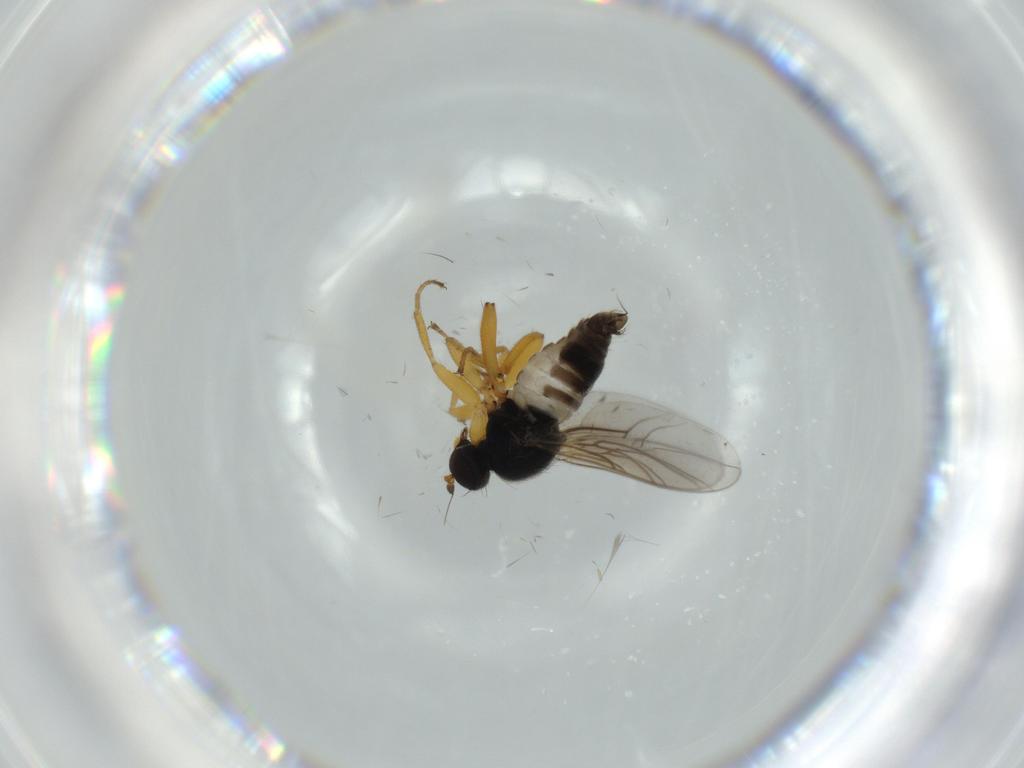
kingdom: Animalia
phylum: Arthropoda
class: Insecta
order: Diptera
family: Hybotidae
